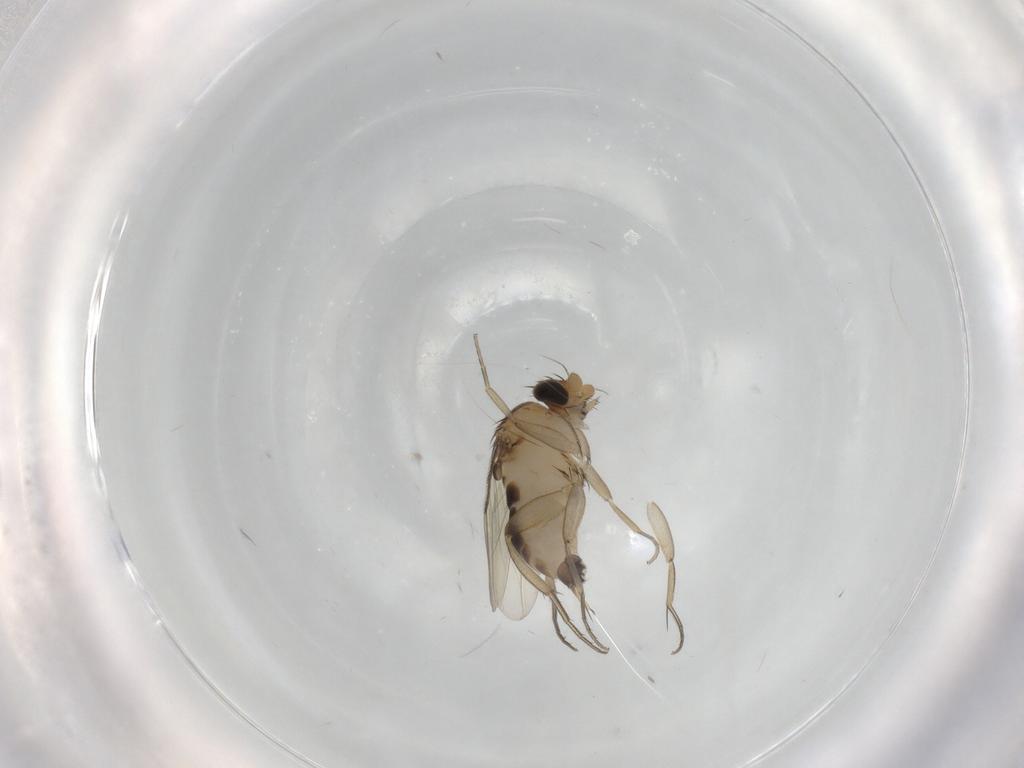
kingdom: Animalia
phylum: Arthropoda
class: Insecta
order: Diptera
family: Phoridae
